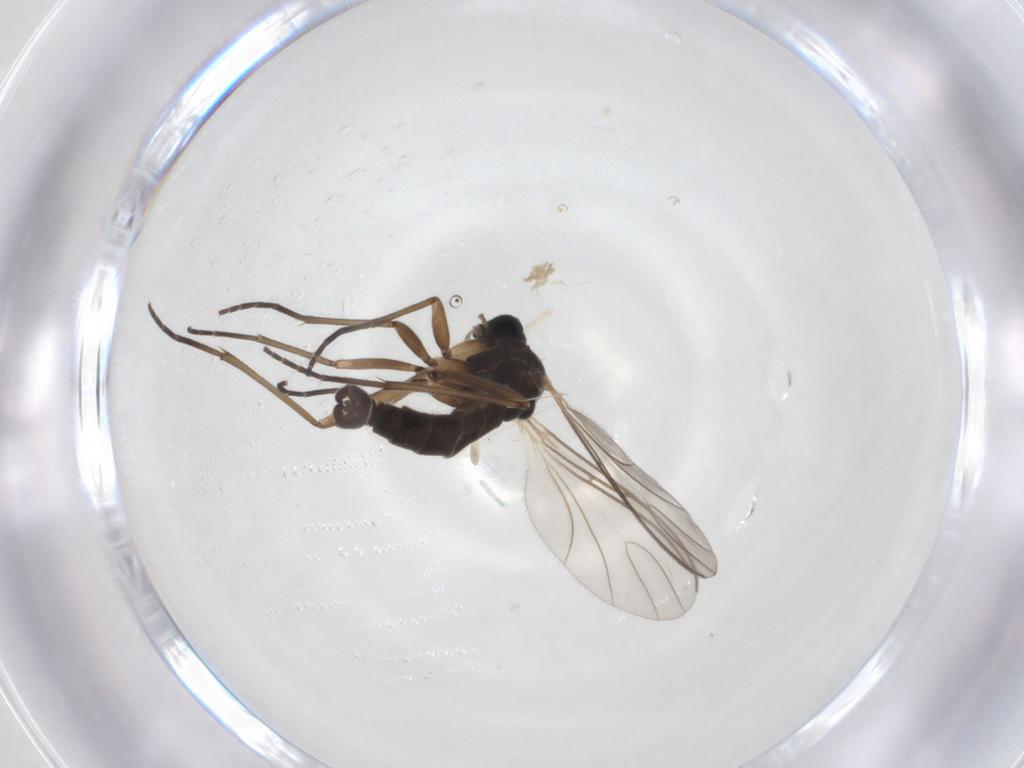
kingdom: Animalia
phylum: Arthropoda
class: Insecta
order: Diptera
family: Sciaridae
